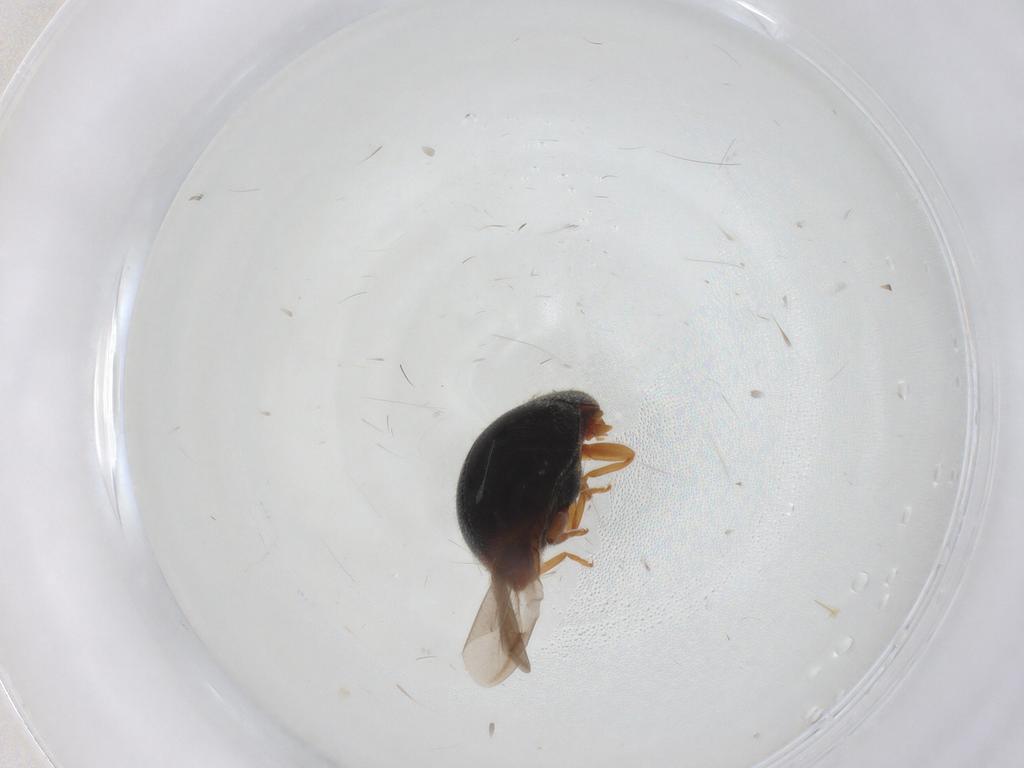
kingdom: Animalia
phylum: Arthropoda
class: Insecta
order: Coleoptera
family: Coccinellidae
